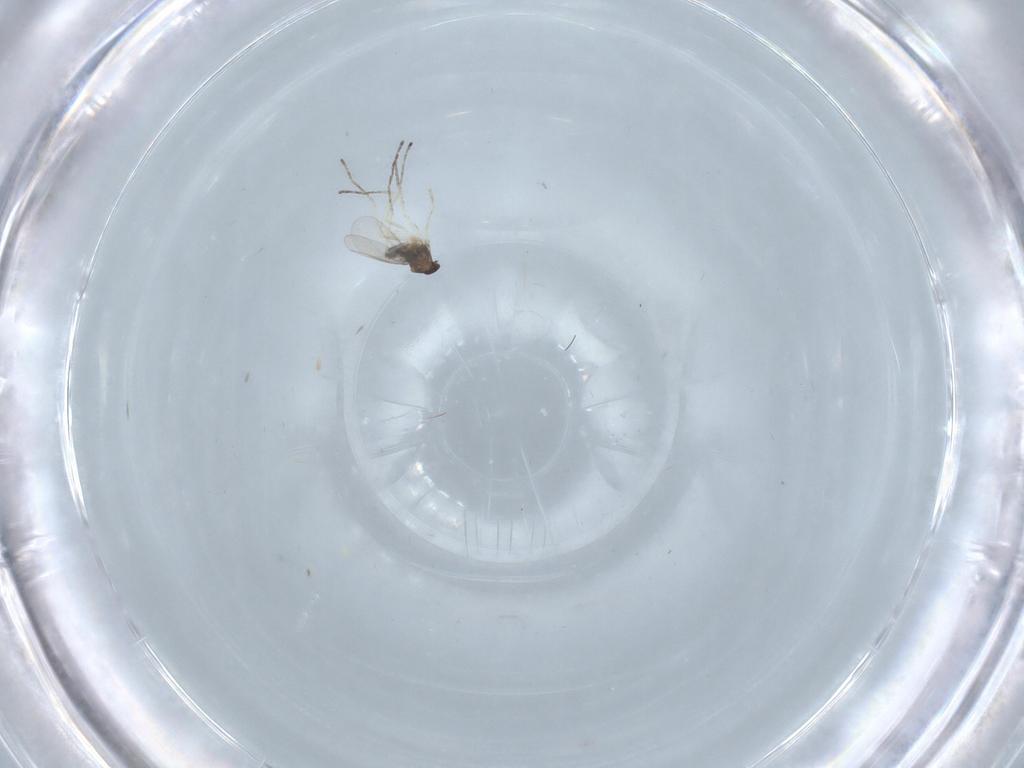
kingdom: Animalia
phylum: Arthropoda
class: Insecta
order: Diptera
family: Cecidomyiidae
